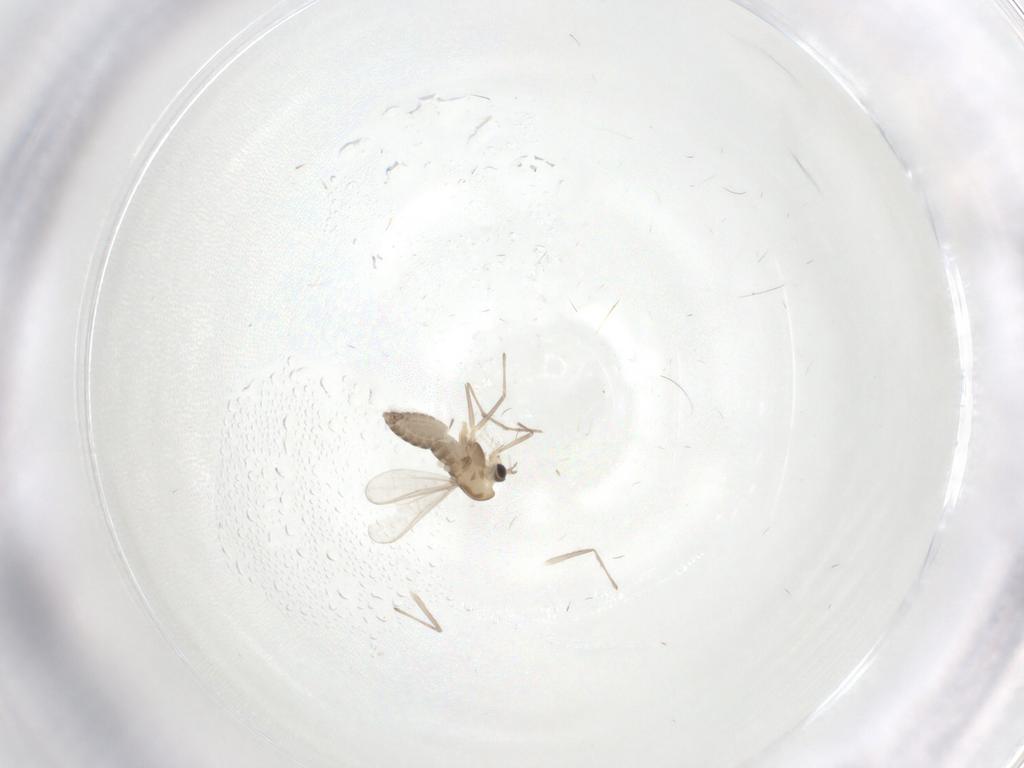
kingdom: Animalia
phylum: Arthropoda
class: Insecta
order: Diptera
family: Chironomidae
